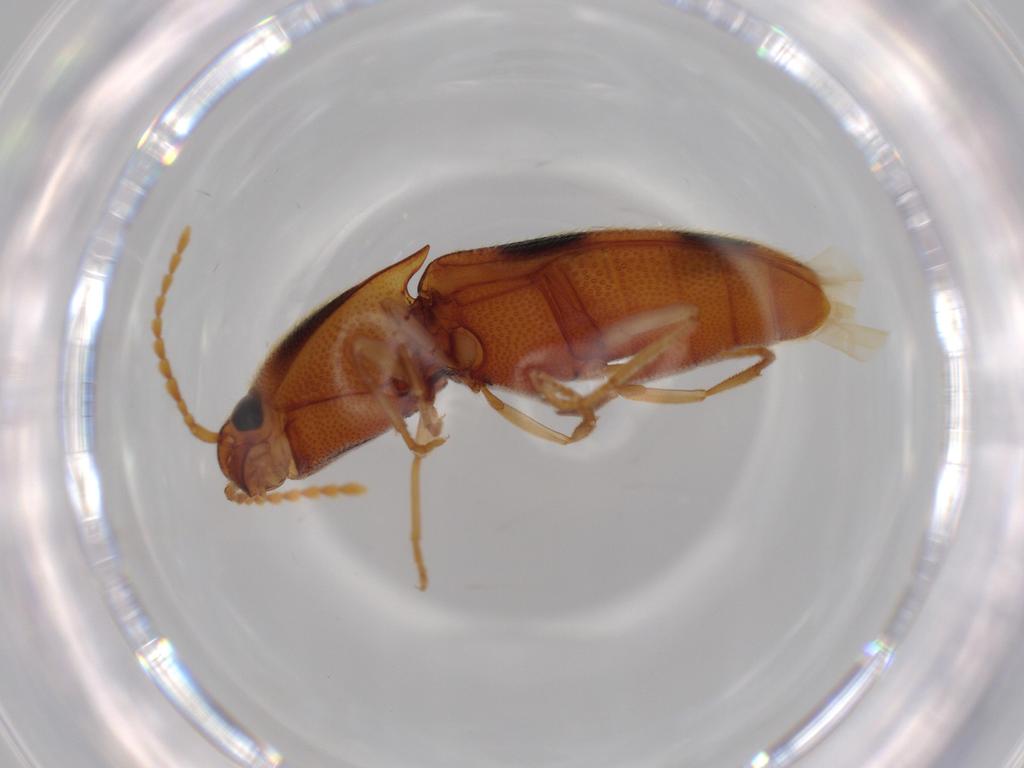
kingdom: Animalia
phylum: Arthropoda
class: Insecta
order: Coleoptera
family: Elateridae
